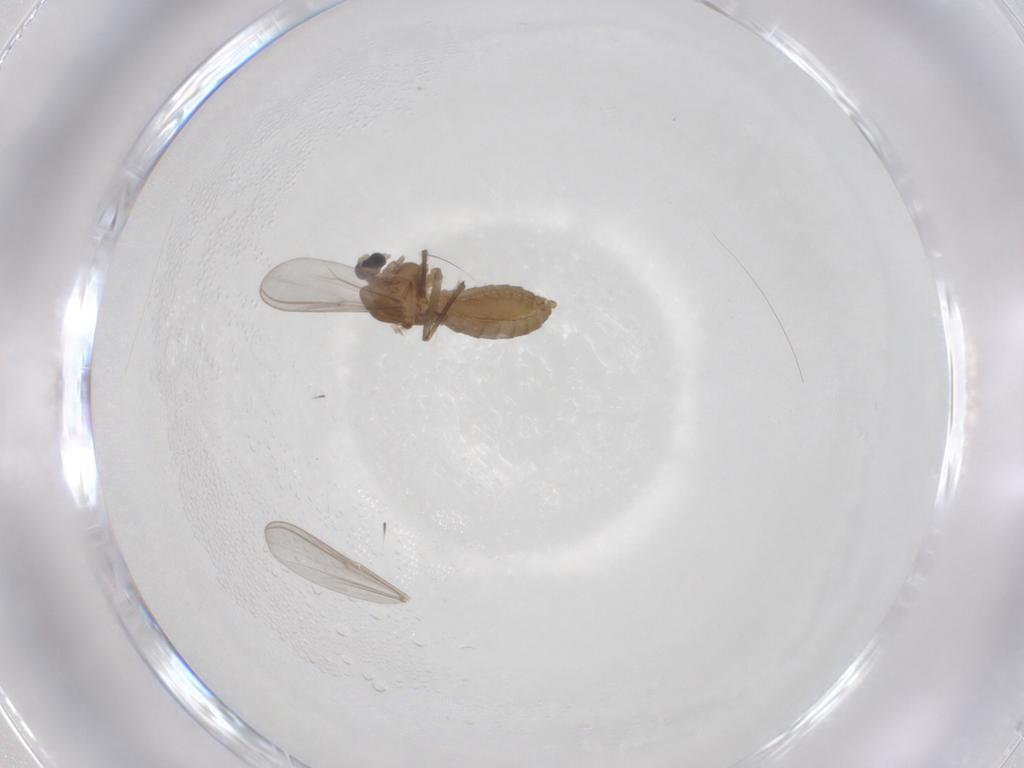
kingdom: Animalia
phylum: Arthropoda
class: Insecta
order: Diptera
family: Chironomidae
